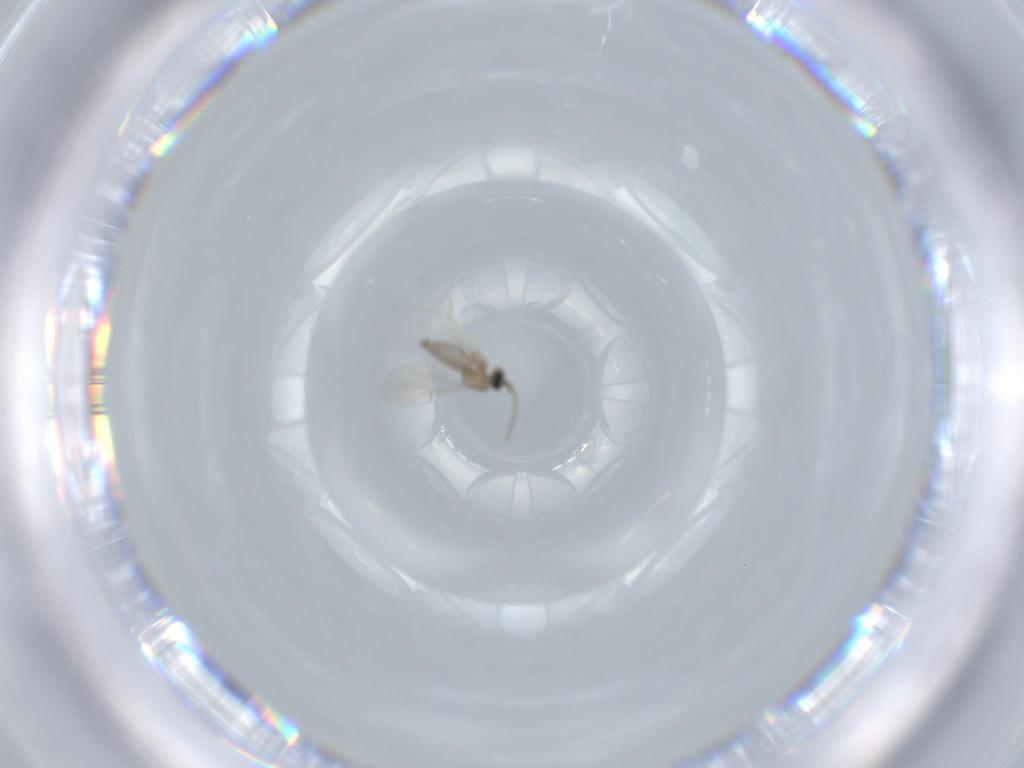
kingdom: Animalia
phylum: Arthropoda
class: Insecta
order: Diptera
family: Cecidomyiidae
